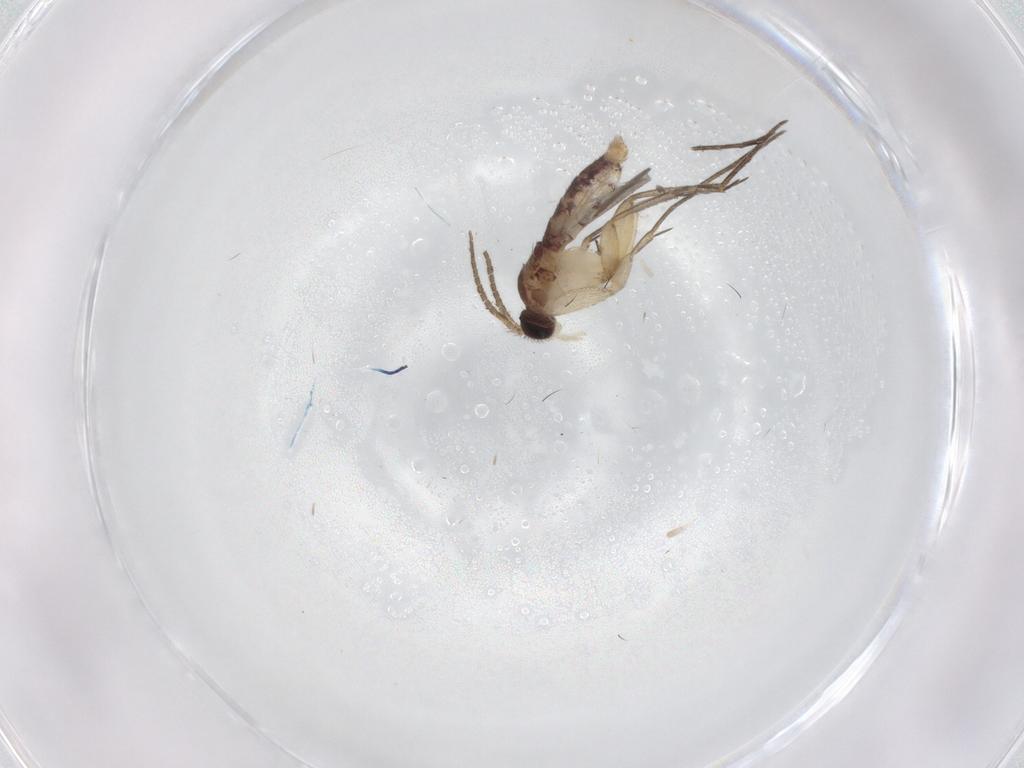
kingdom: Animalia
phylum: Arthropoda
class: Insecta
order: Diptera
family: Mycetophilidae
